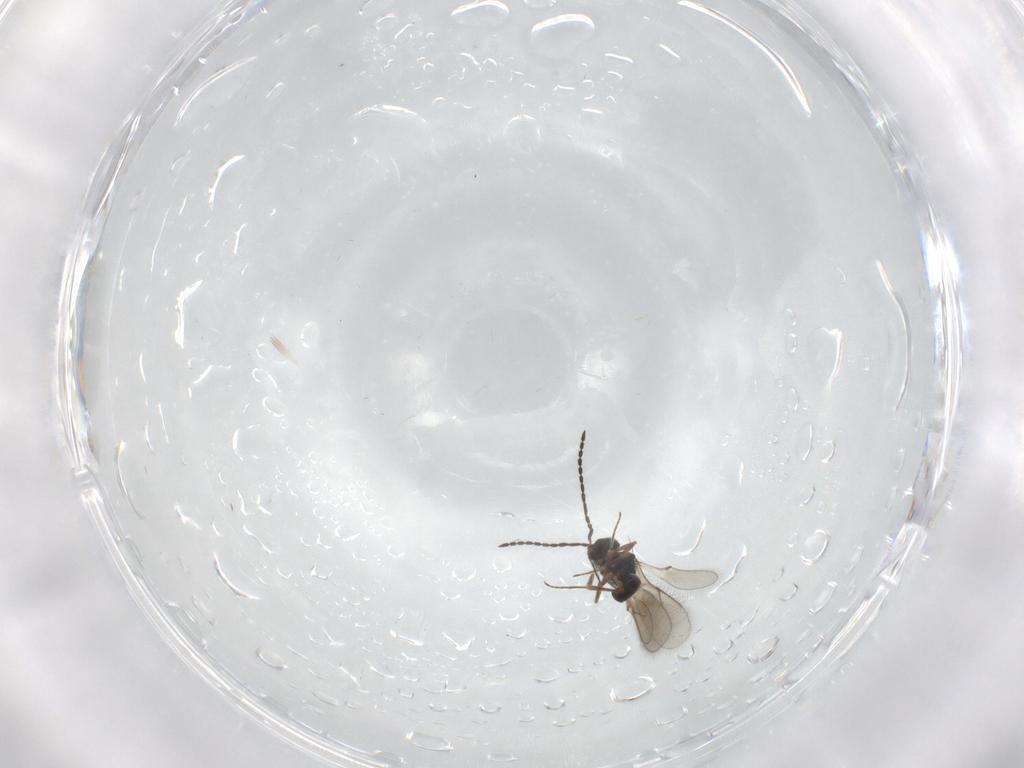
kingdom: Animalia
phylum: Arthropoda
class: Insecta
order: Hymenoptera
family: Scelionidae
